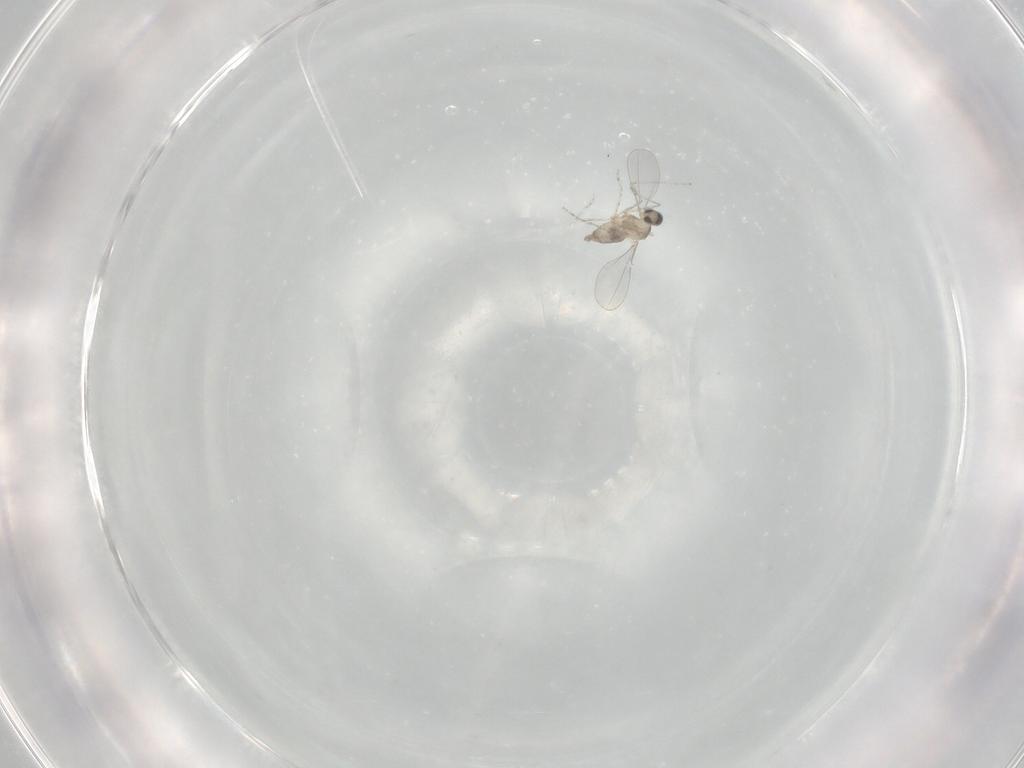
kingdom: Animalia
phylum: Arthropoda
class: Insecta
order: Diptera
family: Cecidomyiidae
